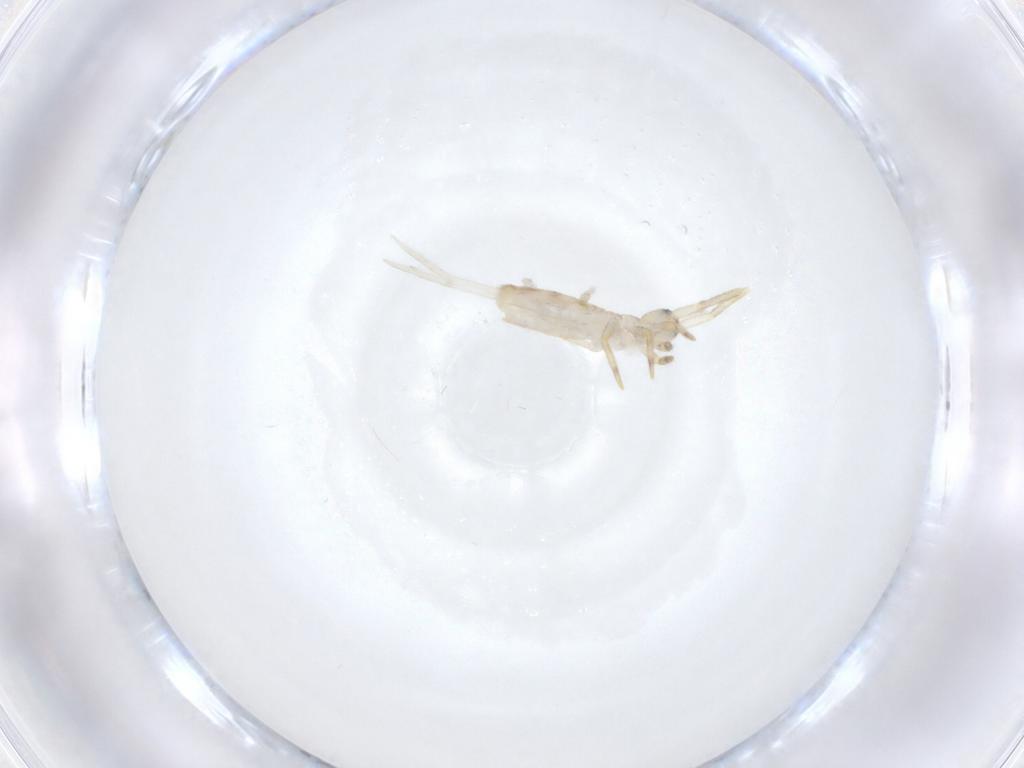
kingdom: Animalia
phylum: Arthropoda
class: Collembola
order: Entomobryomorpha
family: Entomobryidae
